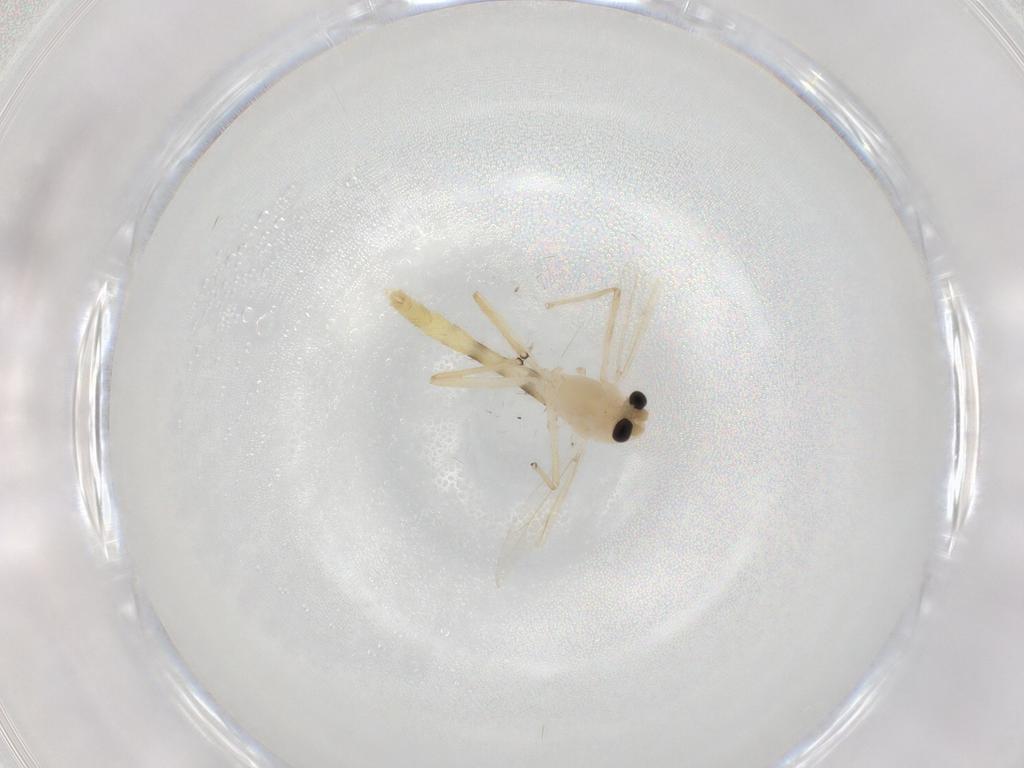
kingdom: Animalia
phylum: Arthropoda
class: Insecta
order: Diptera
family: Chironomidae
